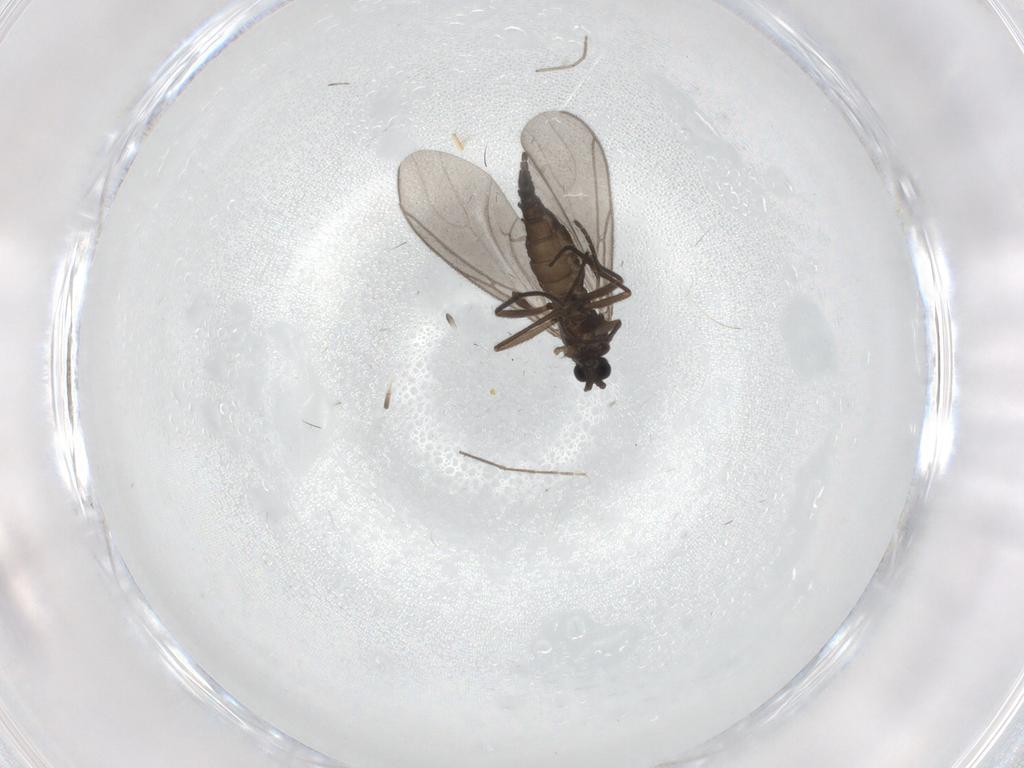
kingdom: Animalia
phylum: Arthropoda
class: Insecta
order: Diptera
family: Sciaridae
